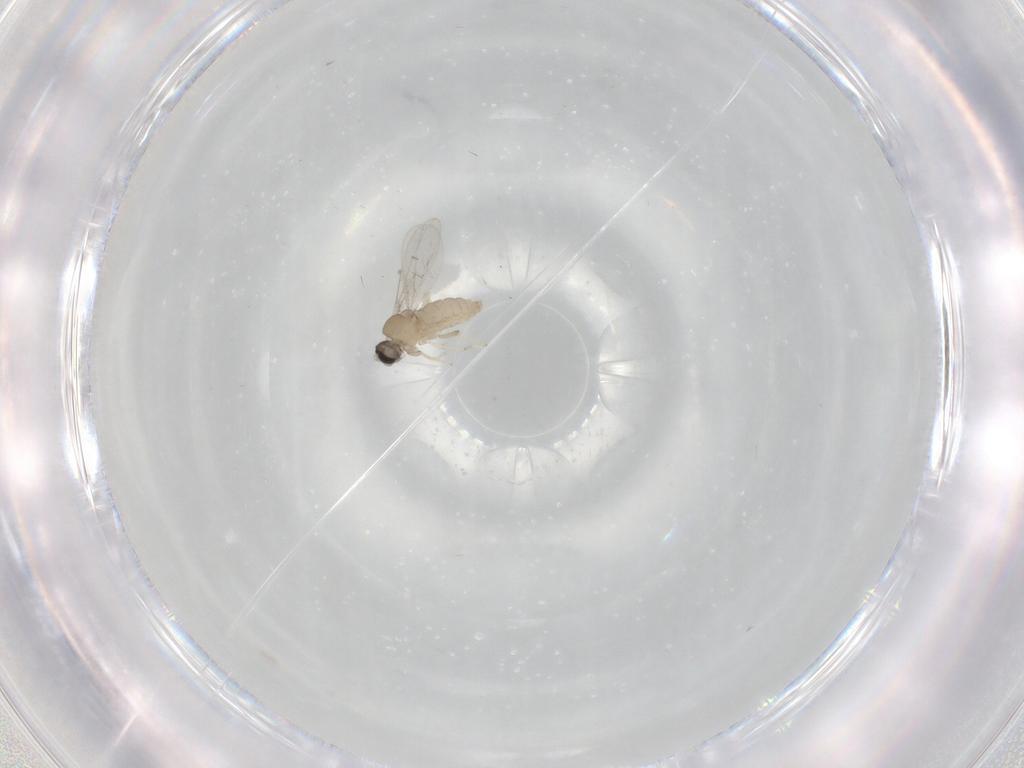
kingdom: Animalia
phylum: Arthropoda
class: Insecta
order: Diptera
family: Cecidomyiidae
